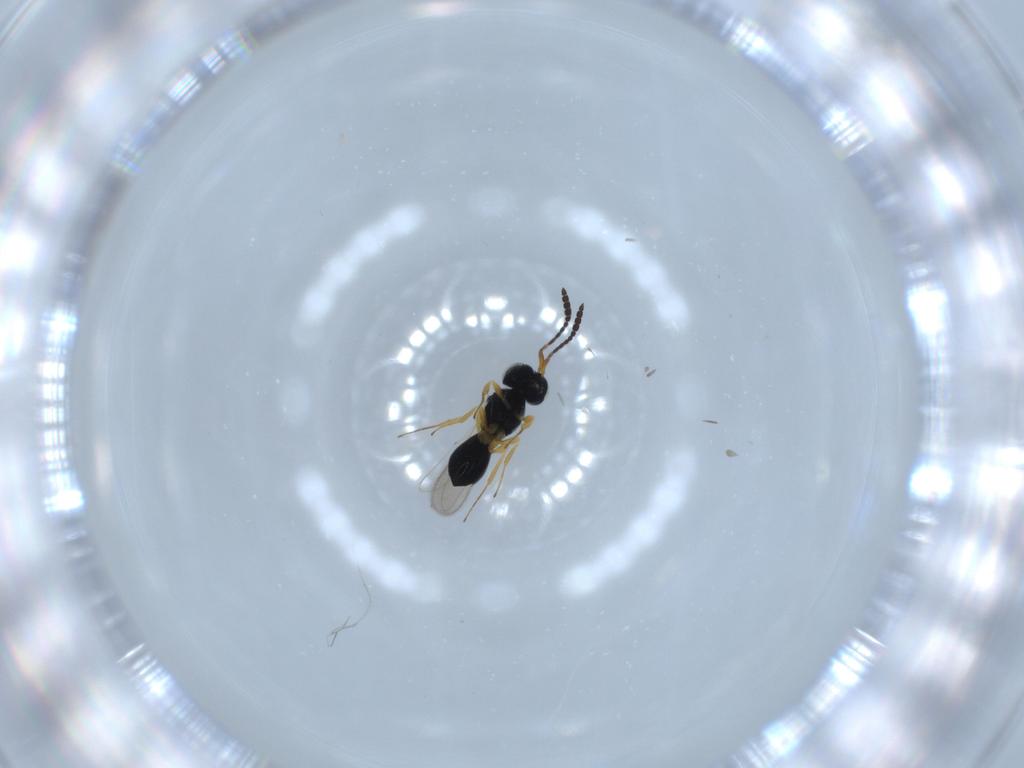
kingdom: Animalia
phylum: Arthropoda
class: Insecta
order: Hymenoptera
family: Scelionidae
